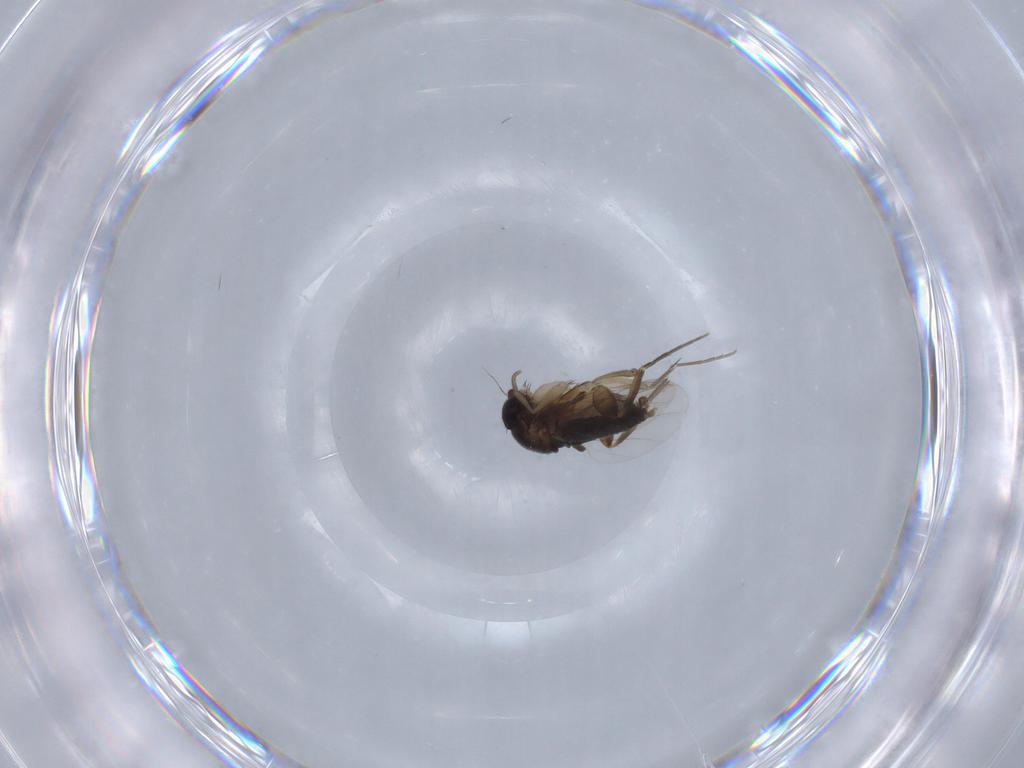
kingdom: Animalia
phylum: Arthropoda
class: Insecta
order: Diptera
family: Phoridae
